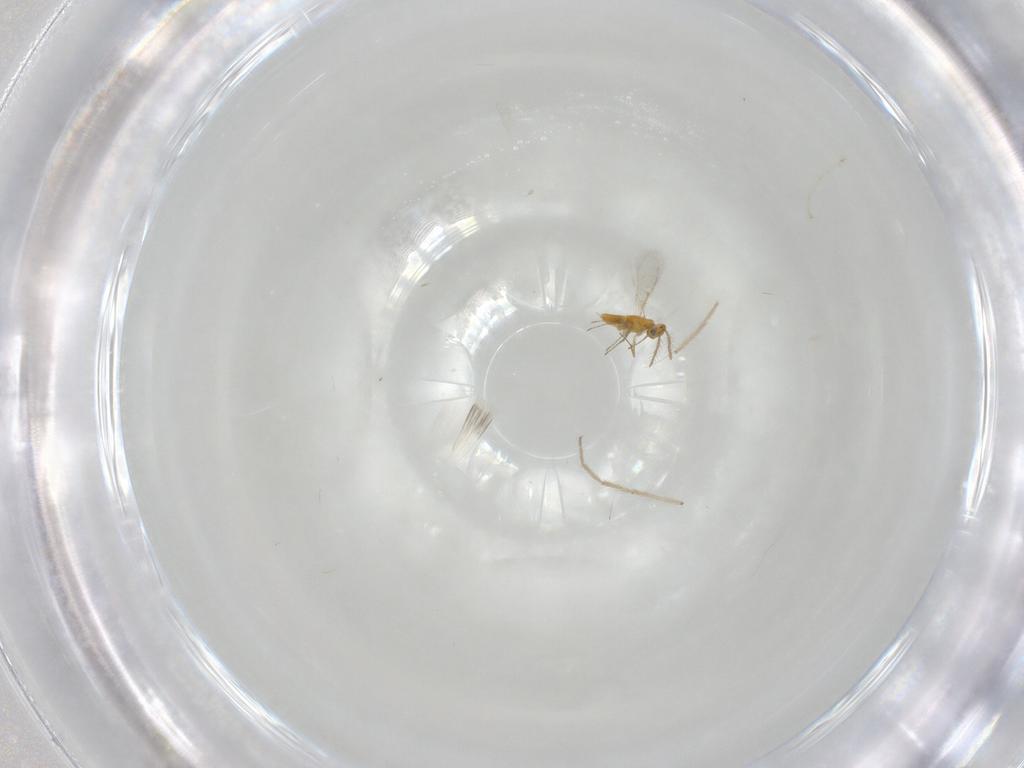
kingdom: Animalia
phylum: Arthropoda
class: Insecta
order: Hymenoptera
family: Aphelinidae
